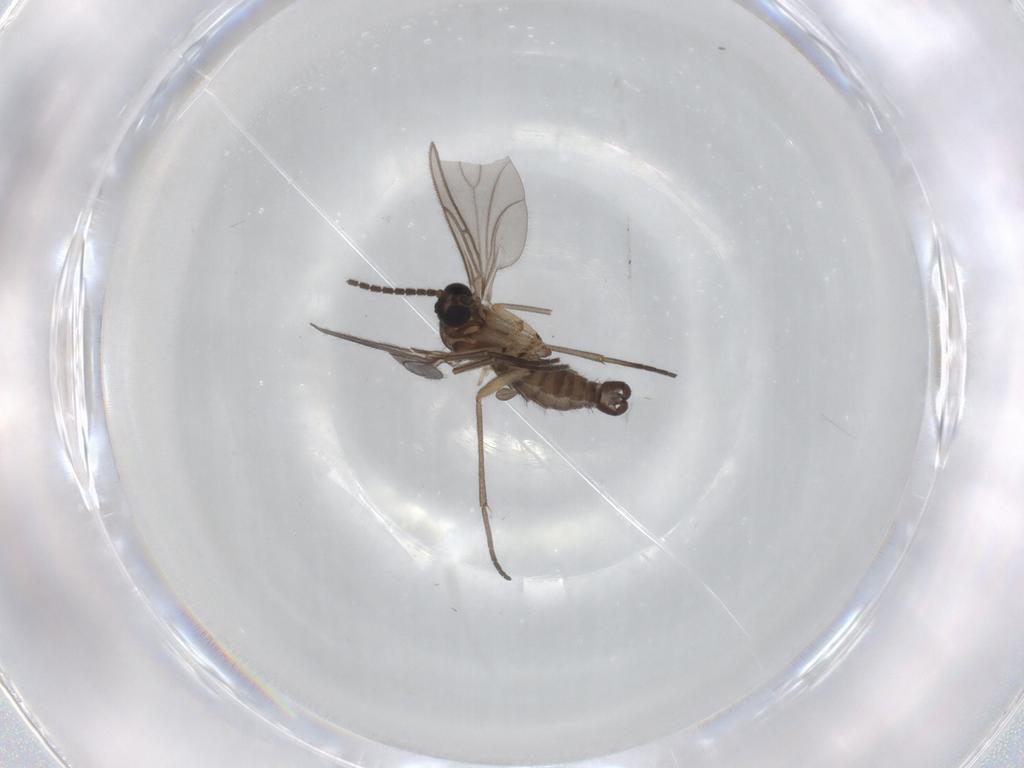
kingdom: Animalia
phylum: Arthropoda
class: Insecta
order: Diptera
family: Sciaridae
